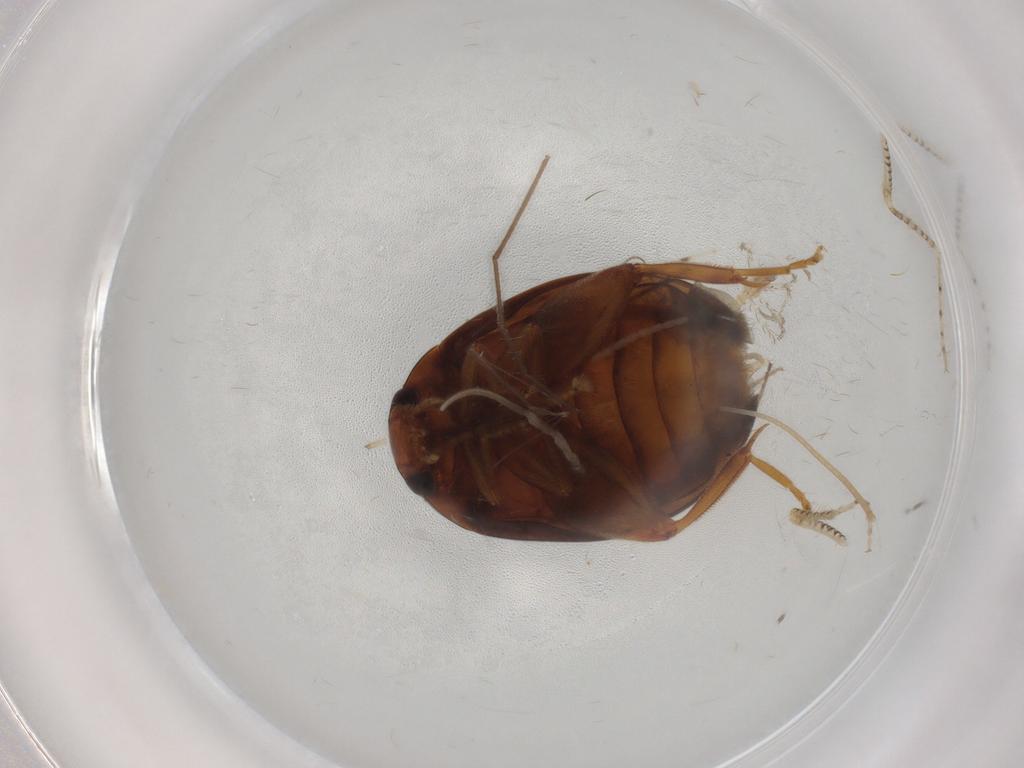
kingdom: Animalia
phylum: Arthropoda
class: Insecta
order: Coleoptera
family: Scirtidae
